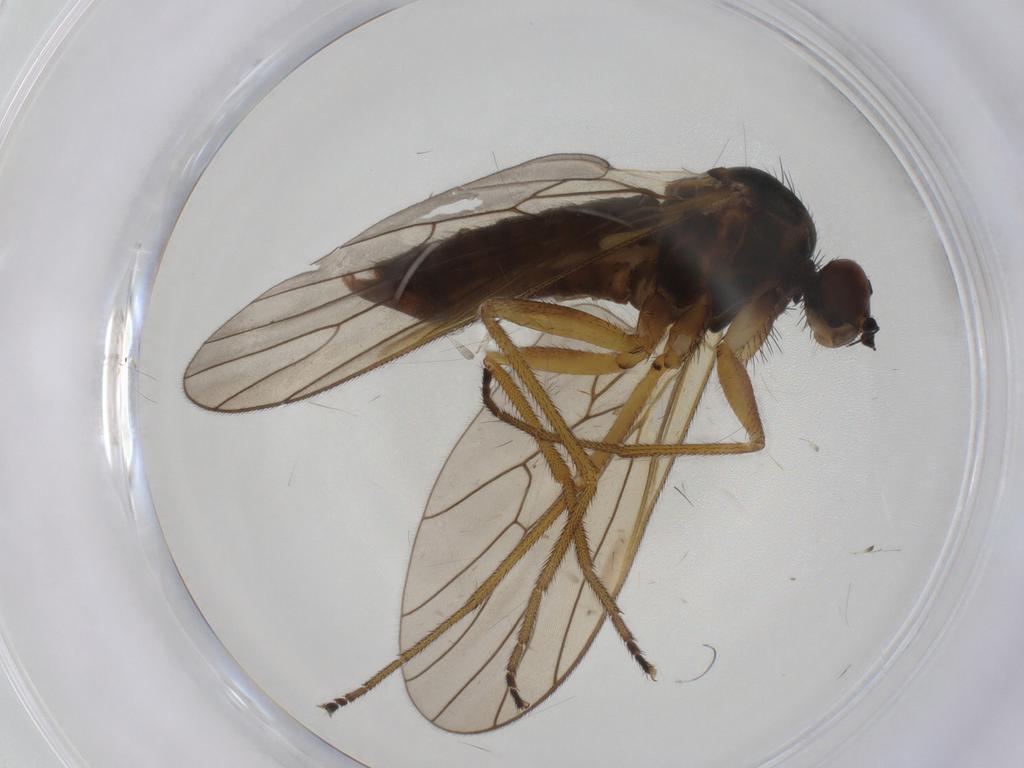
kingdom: Animalia
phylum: Arthropoda
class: Insecta
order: Diptera
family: Brachystomatidae
